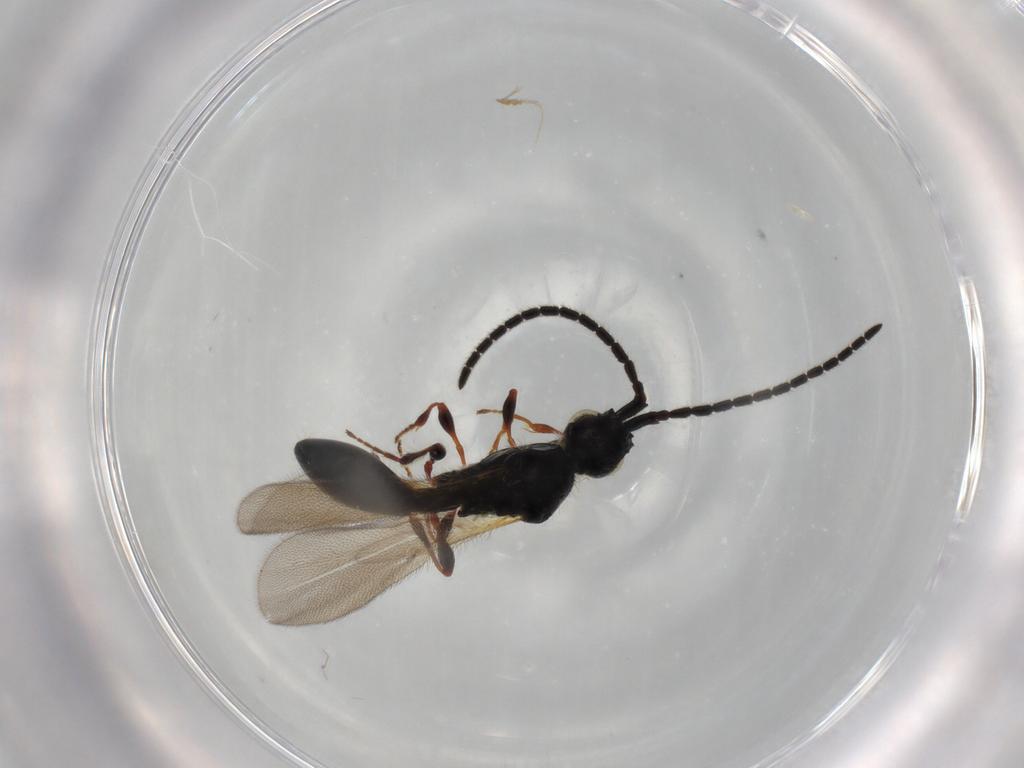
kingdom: Animalia
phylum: Arthropoda
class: Insecta
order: Hymenoptera
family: Diapriidae
